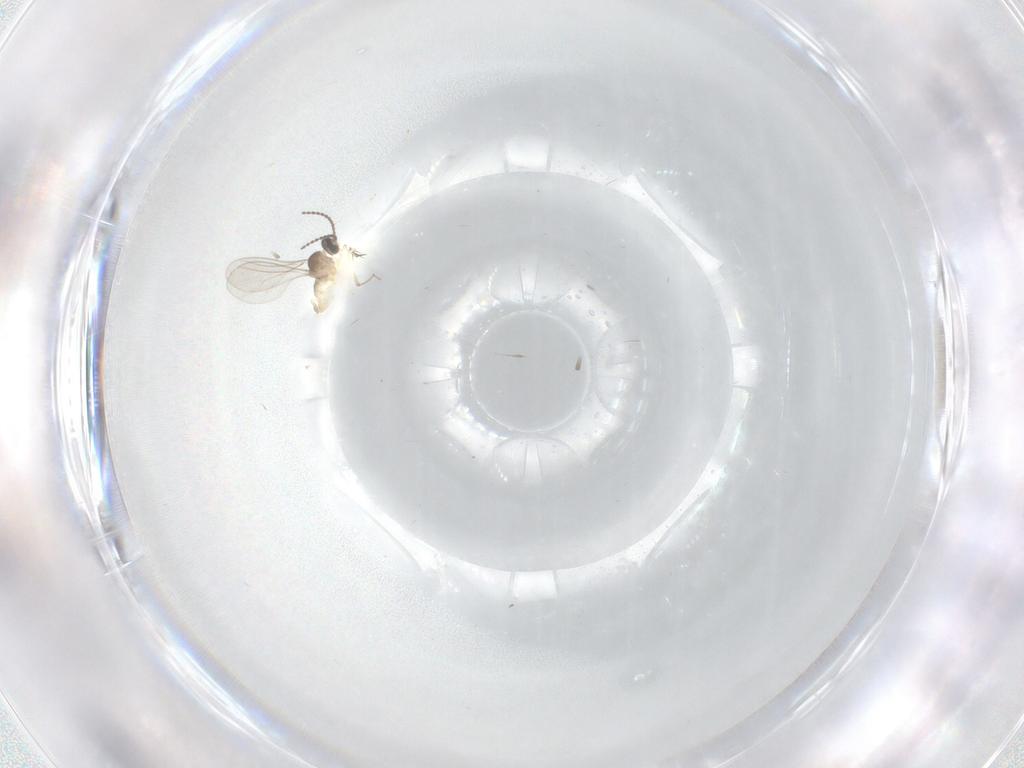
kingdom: Animalia
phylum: Arthropoda
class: Insecta
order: Diptera
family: Cecidomyiidae
